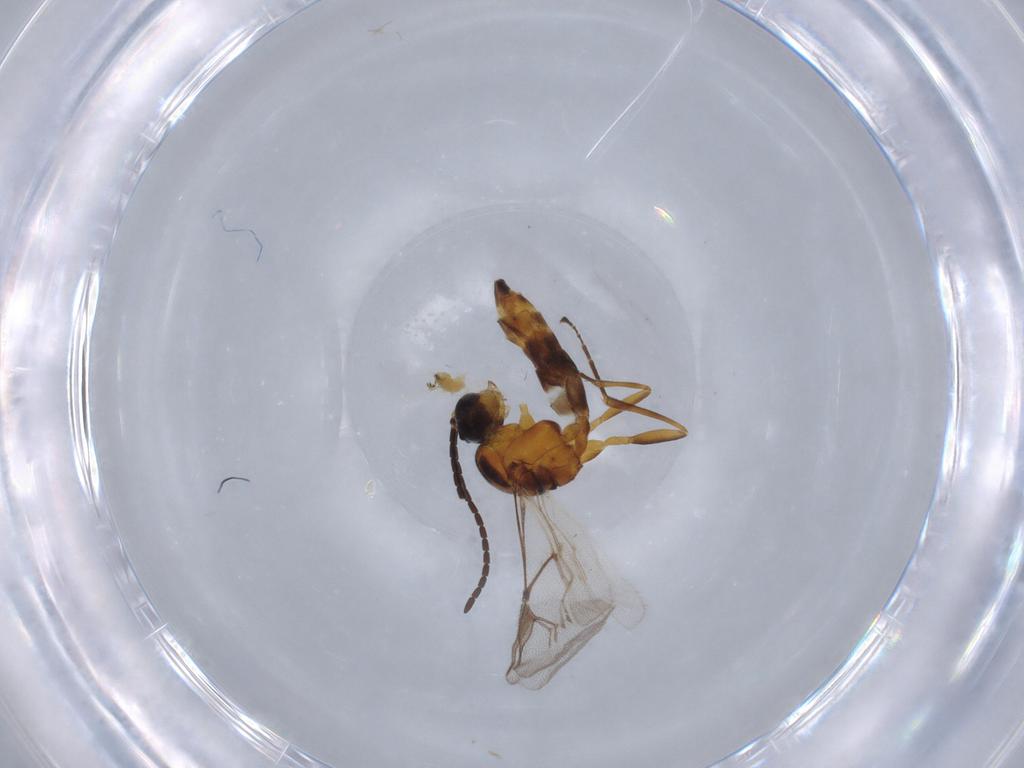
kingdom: Animalia
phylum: Arthropoda
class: Insecta
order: Hymenoptera
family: Braconidae
